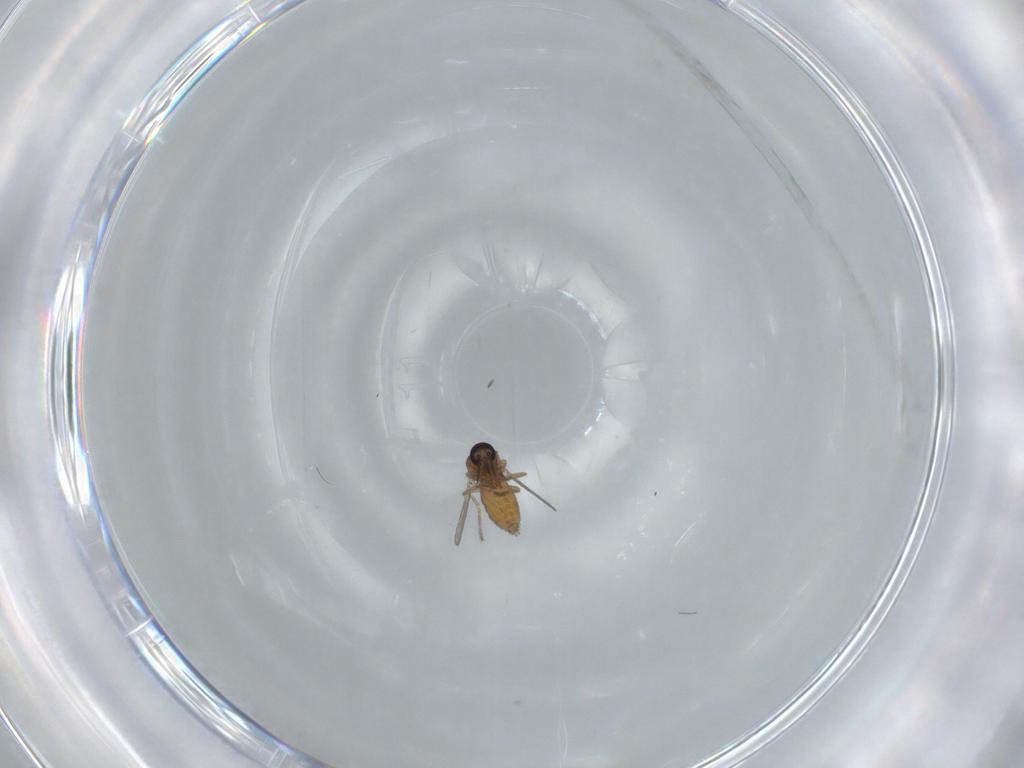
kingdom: Animalia
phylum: Arthropoda
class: Insecta
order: Diptera
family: Ceratopogonidae
